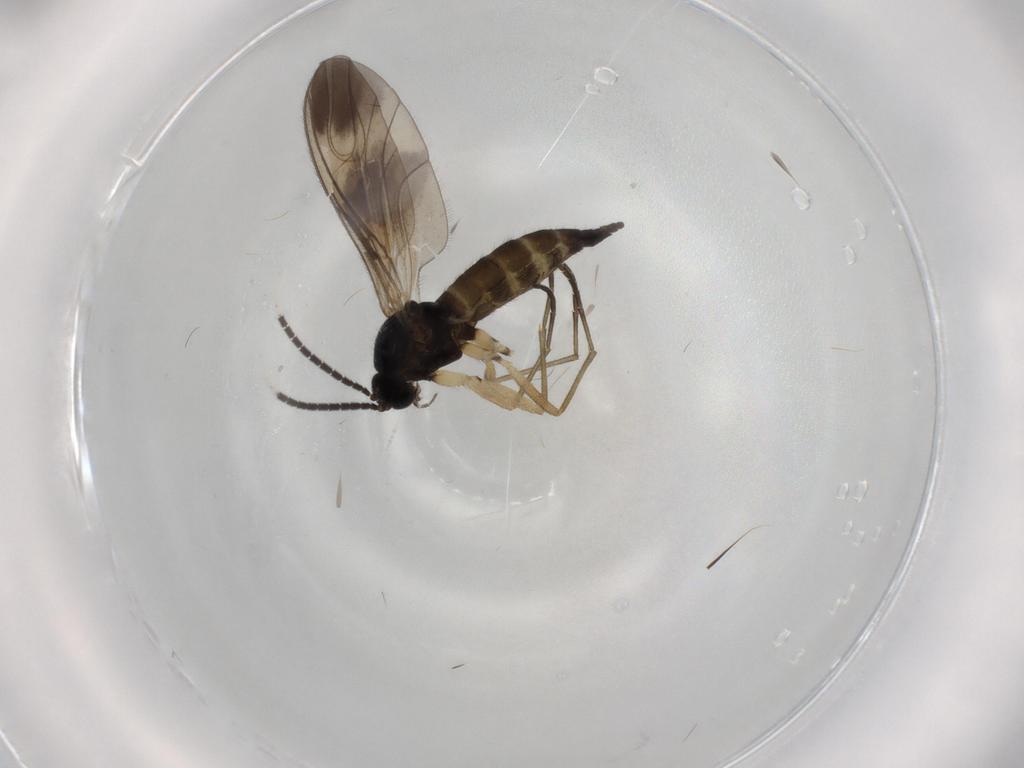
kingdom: Animalia
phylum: Arthropoda
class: Insecta
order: Diptera
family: Sciaridae
